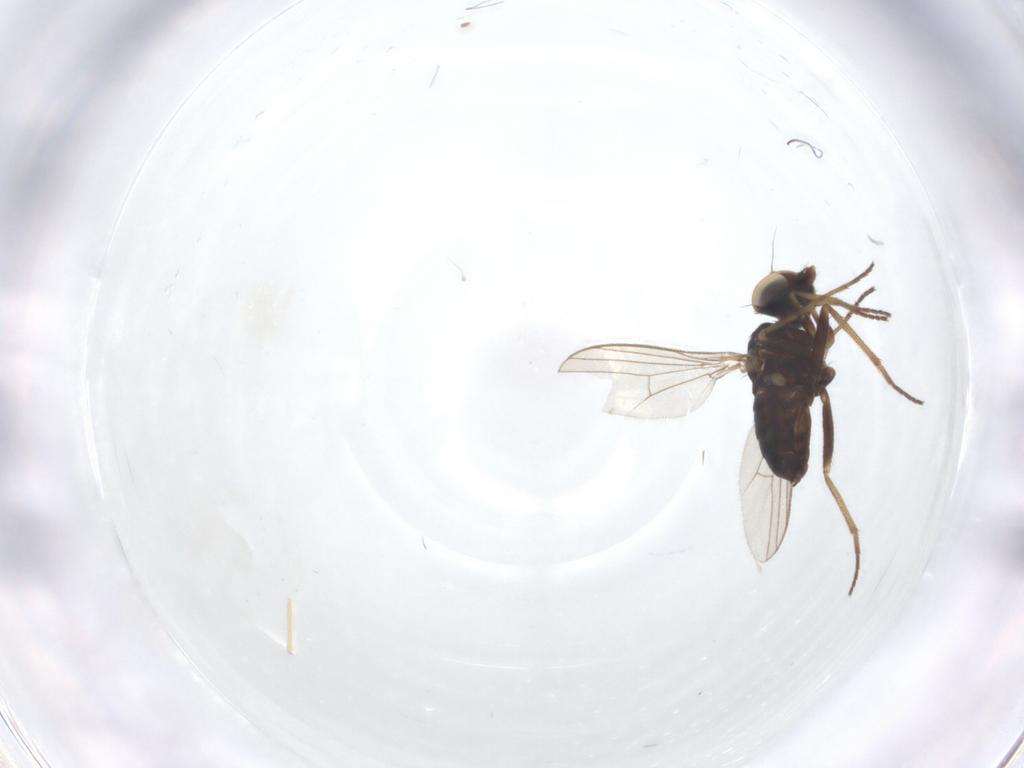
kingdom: Animalia
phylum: Arthropoda
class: Insecta
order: Diptera
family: Dolichopodidae
